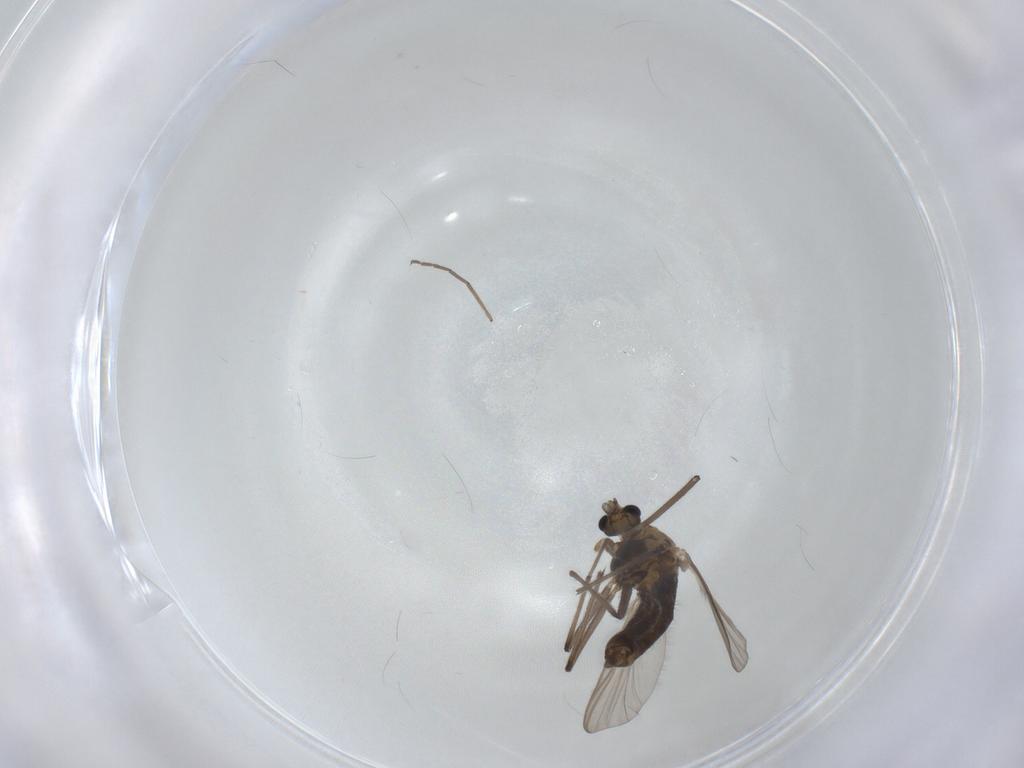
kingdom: Animalia
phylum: Arthropoda
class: Insecta
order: Diptera
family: Chironomidae
